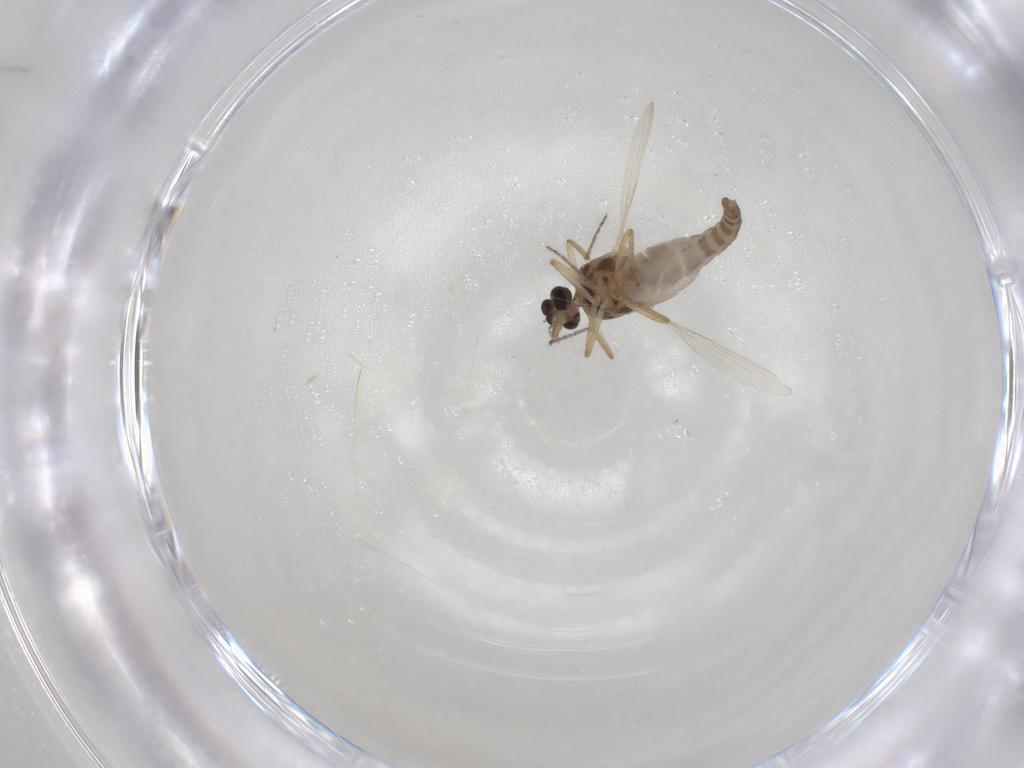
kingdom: Animalia
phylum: Arthropoda
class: Insecta
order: Diptera
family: Ceratopogonidae
